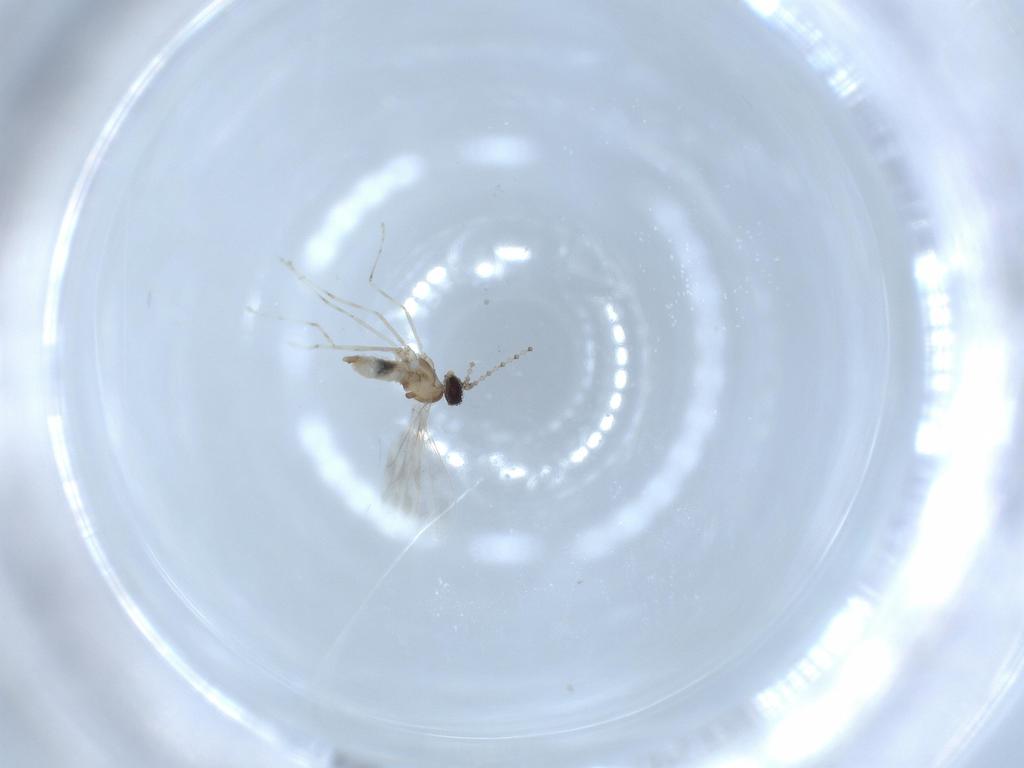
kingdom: Animalia
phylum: Arthropoda
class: Insecta
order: Diptera
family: Cecidomyiidae
